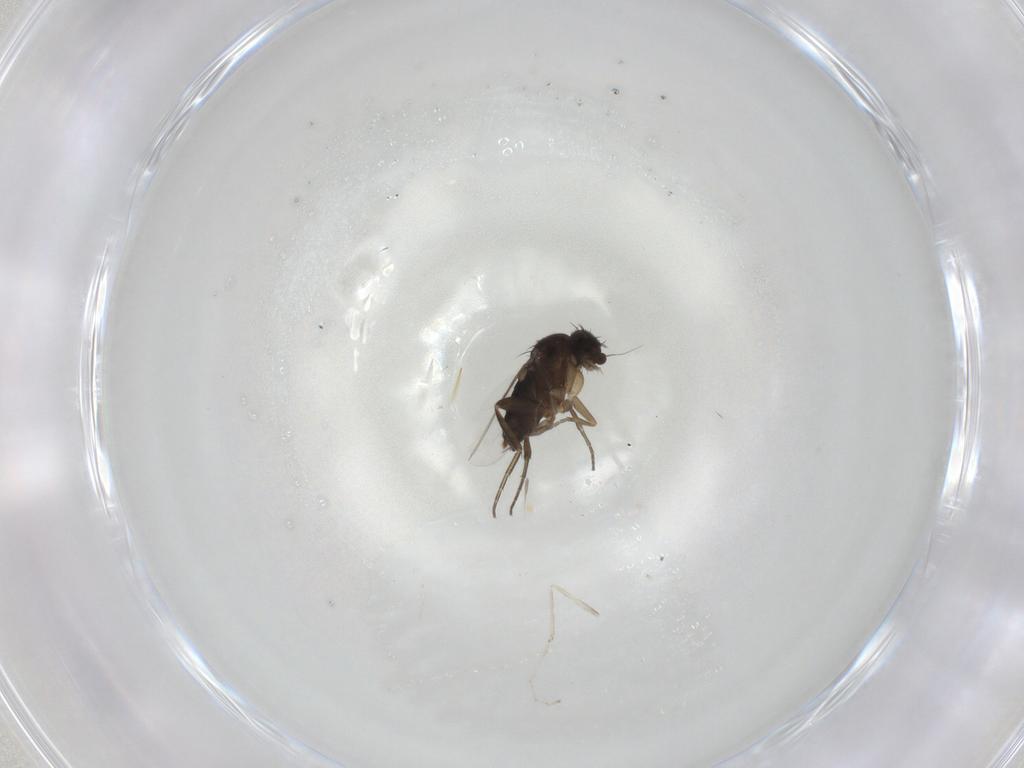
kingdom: Animalia
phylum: Arthropoda
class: Insecta
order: Diptera
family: Phoridae
